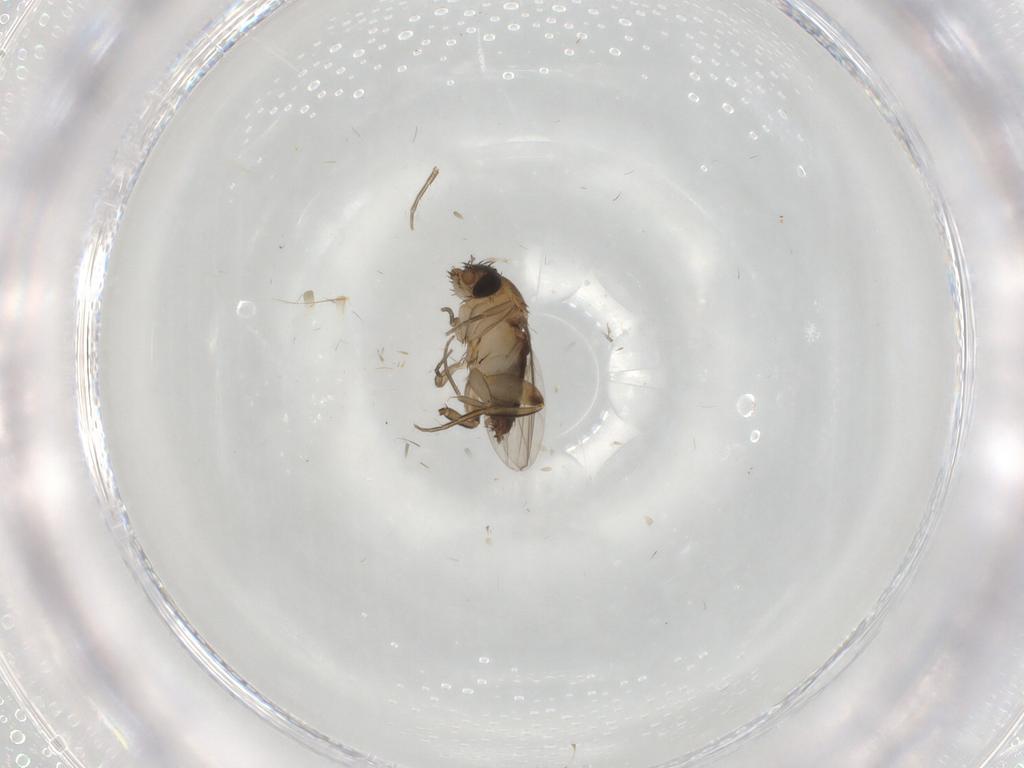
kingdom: Animalia
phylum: Arthropoda
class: Insecta
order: Diptera
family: Phoridae
